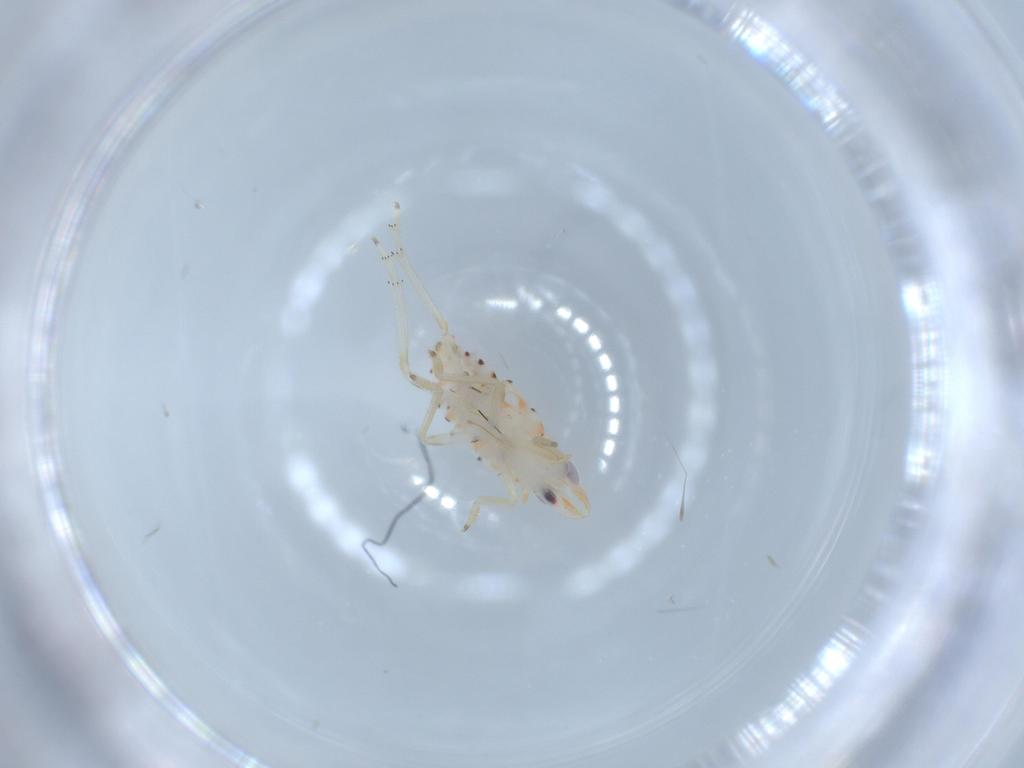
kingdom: Animalia
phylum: Arthropoda
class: Insecta
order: Hemiptera
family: Tropiduchidae
